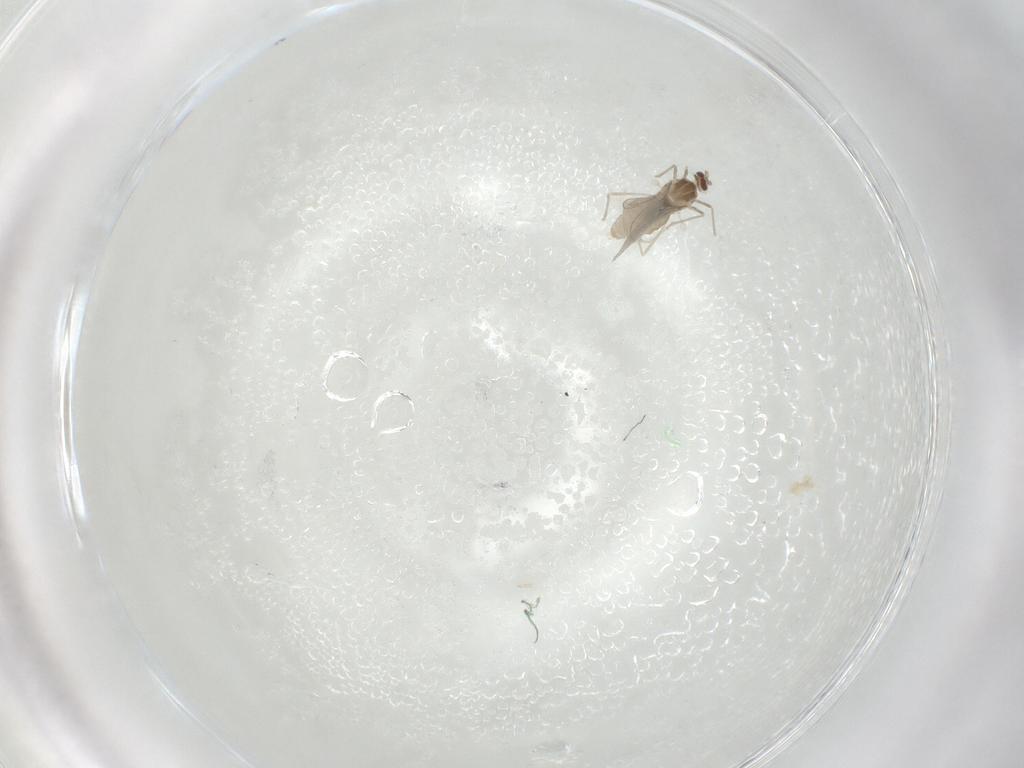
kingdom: Animalia
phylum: Arthropoda
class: Insecta
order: Diptera
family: Cecidomyiidae
